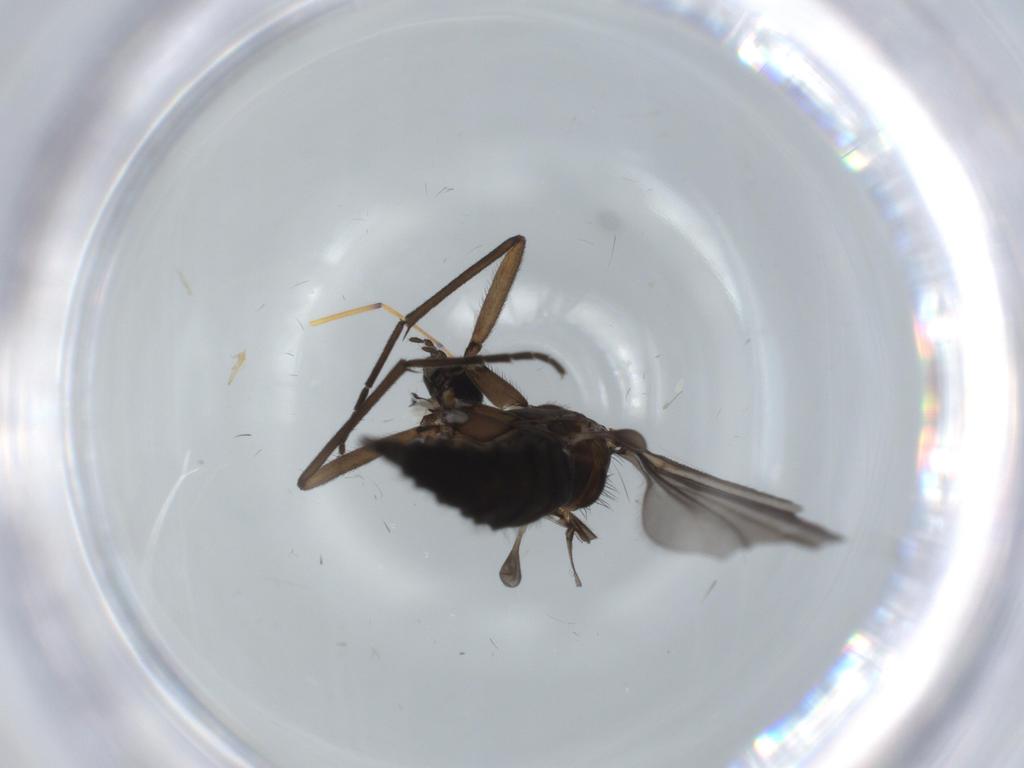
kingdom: Animalia
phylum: Arthropoda
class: Insecta
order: Diptera
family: Sciaridae
